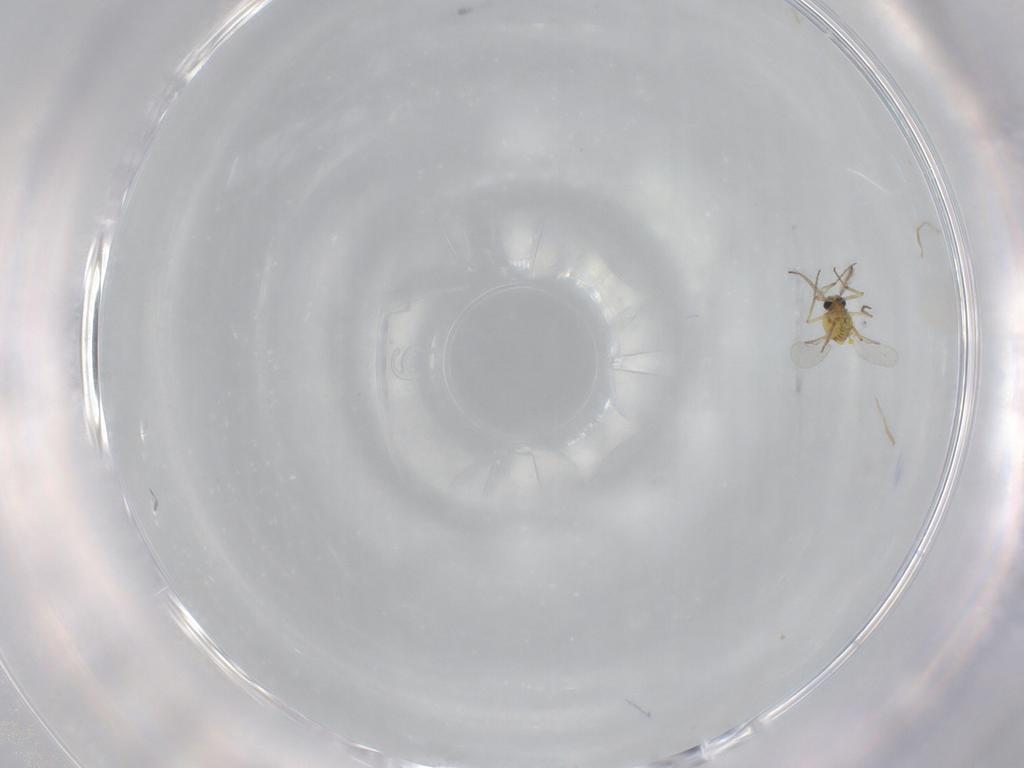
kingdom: Animalia
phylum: Arthropoda
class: Insecta
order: Diptera
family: Ceratopogonidae
